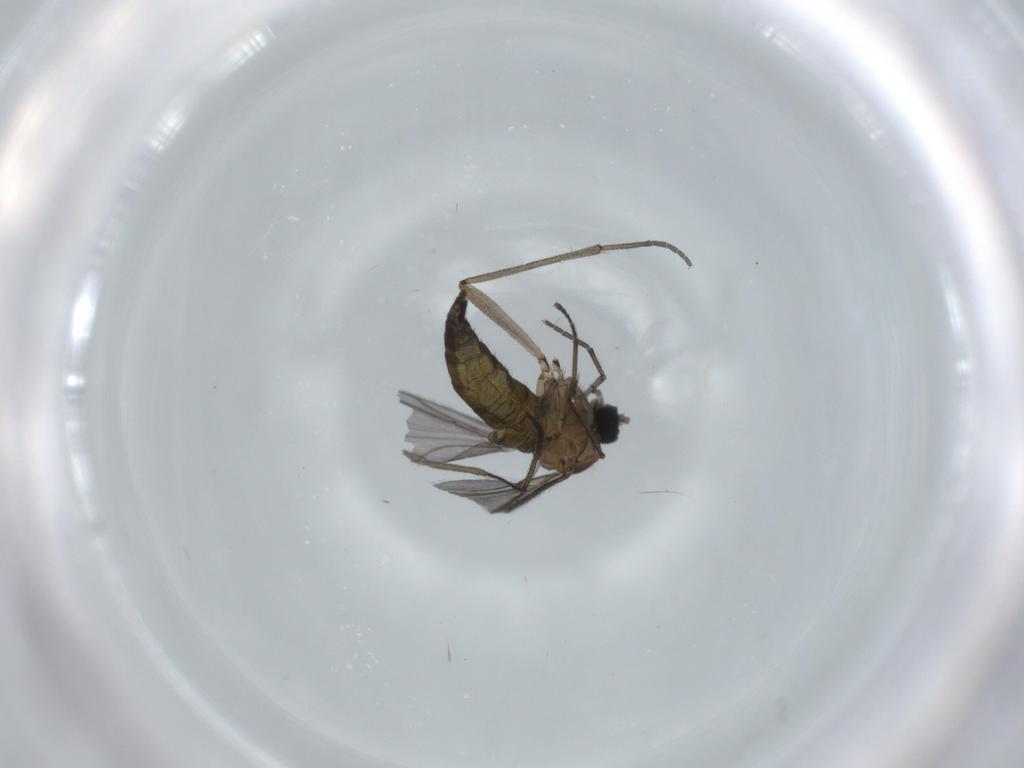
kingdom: Animalia
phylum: Arthropoda
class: Insecta
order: Diptera
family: Sciaridae
